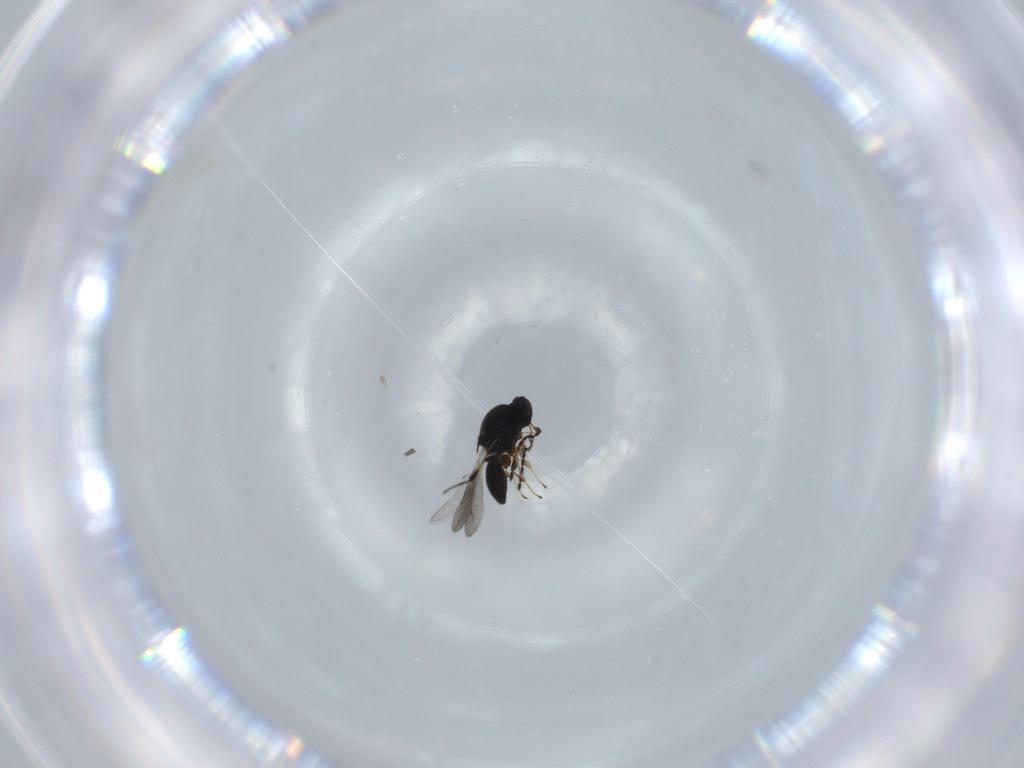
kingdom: Animalia
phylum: Arthropoda
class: Insecta
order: Hymenoptera
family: Platygastridae
